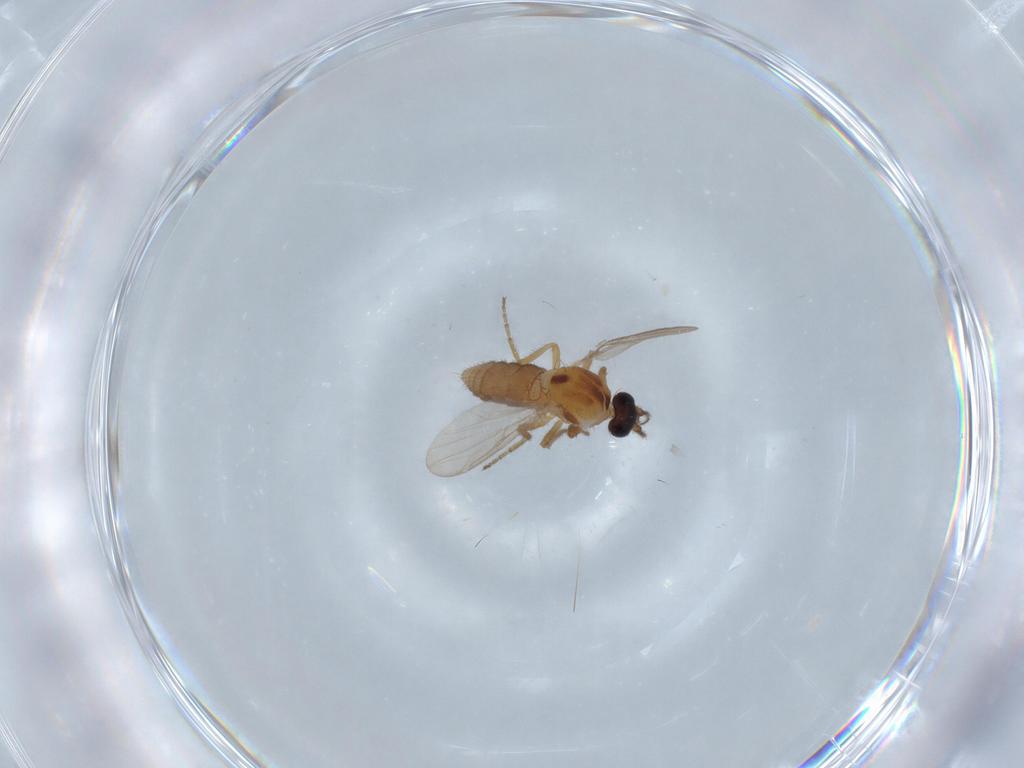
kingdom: Animalia
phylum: Arthropoda
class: Insecta
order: Diptera
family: Ceratopogonidae
